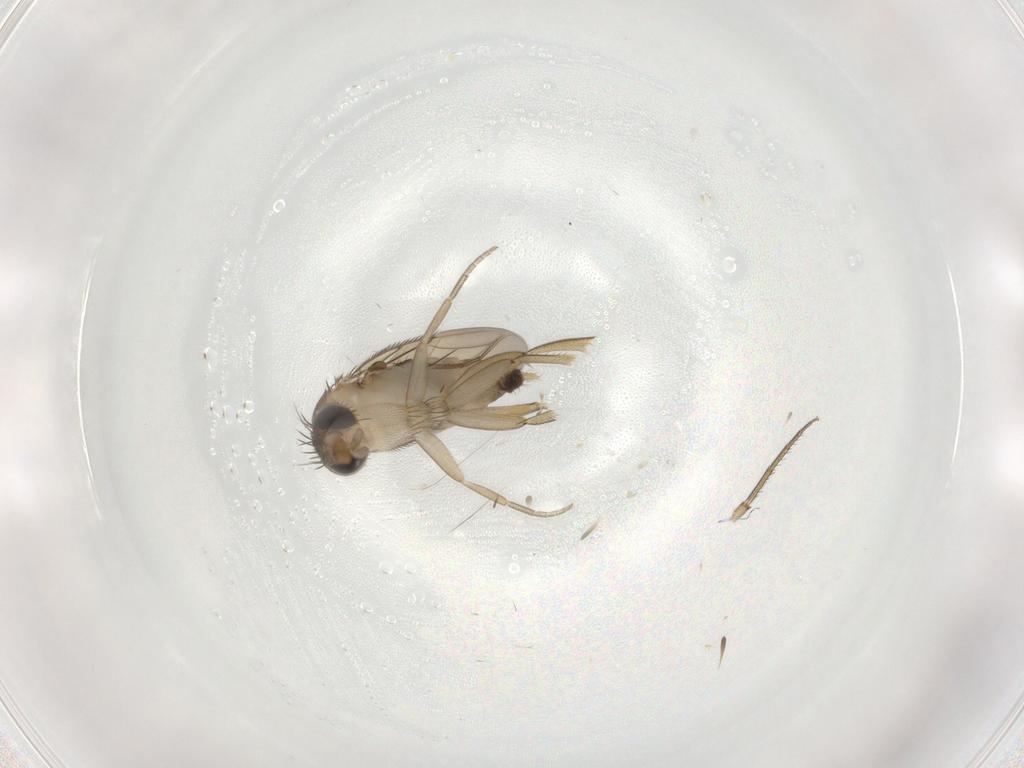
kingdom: Animalia
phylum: Arthropoda
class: Insecta
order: Diptera
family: Phoridae
